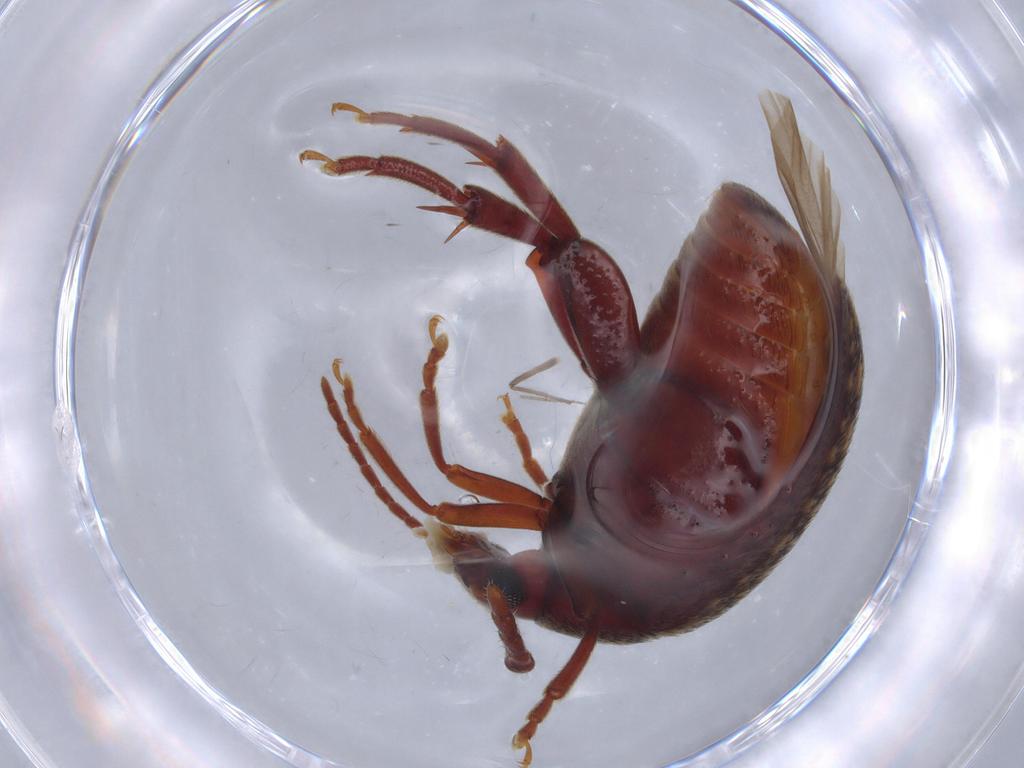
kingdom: Animalia
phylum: Arthropoda
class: Insecta
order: Coleoptera
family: Chrysomelidae
